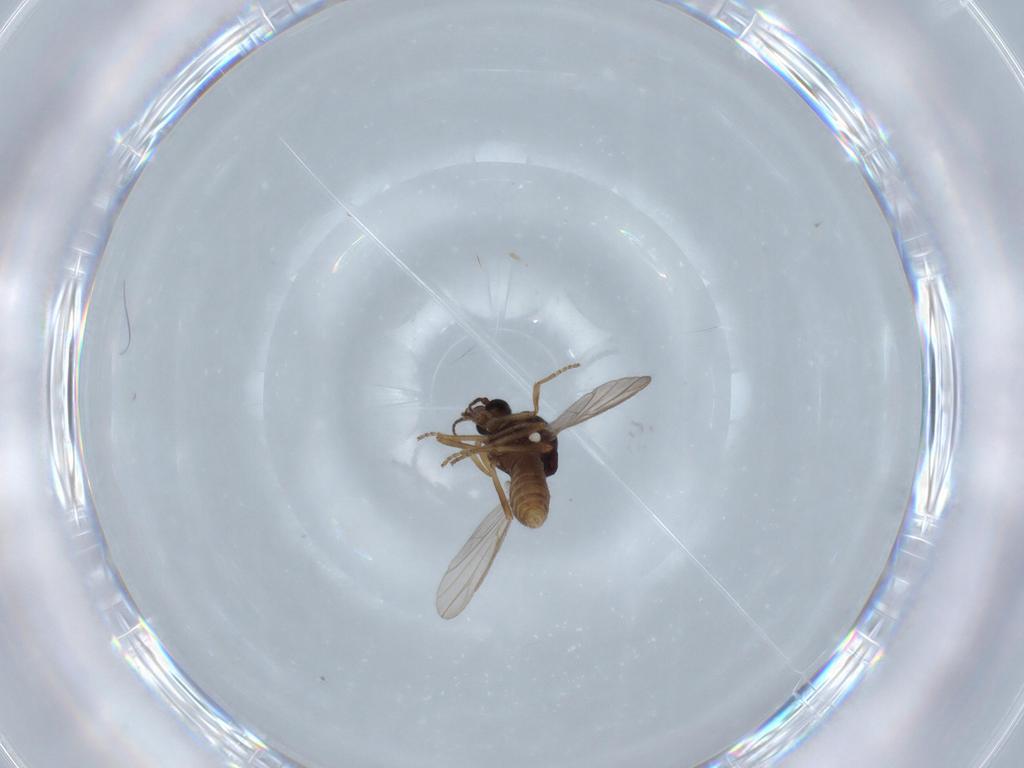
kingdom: Animalia
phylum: Arthropoda
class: Insecta
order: Diptera
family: Ceratopogonidae
